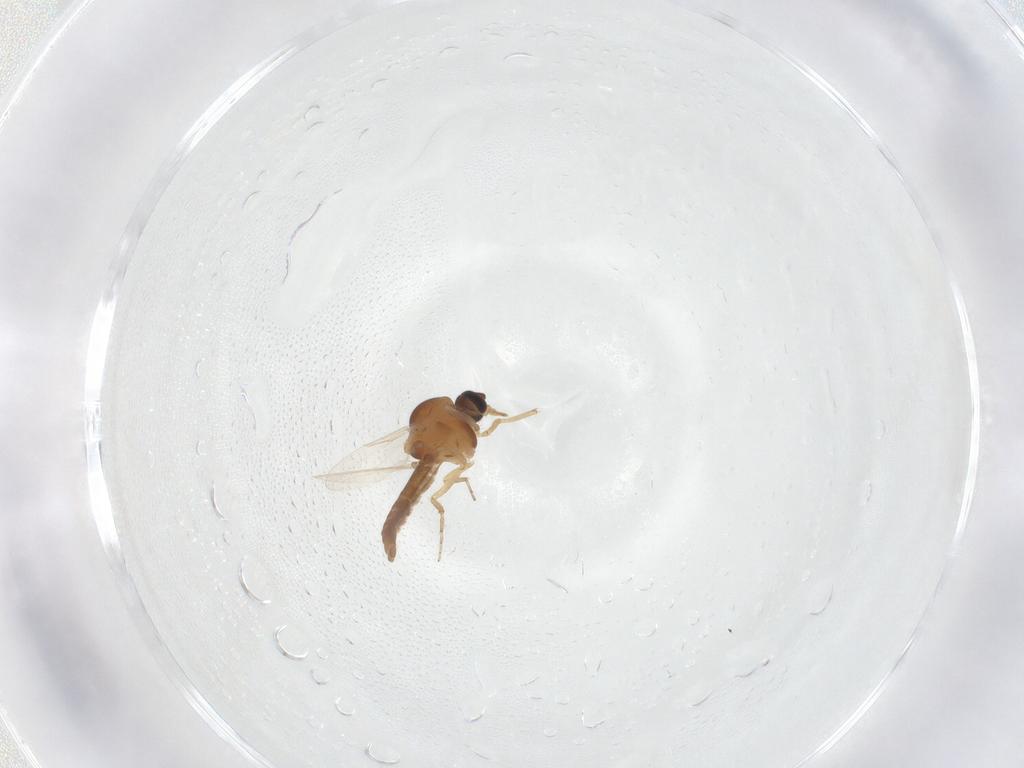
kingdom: Animalia
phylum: Arthropoda
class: Insecta
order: Diptera
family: Ceratopogonidae
